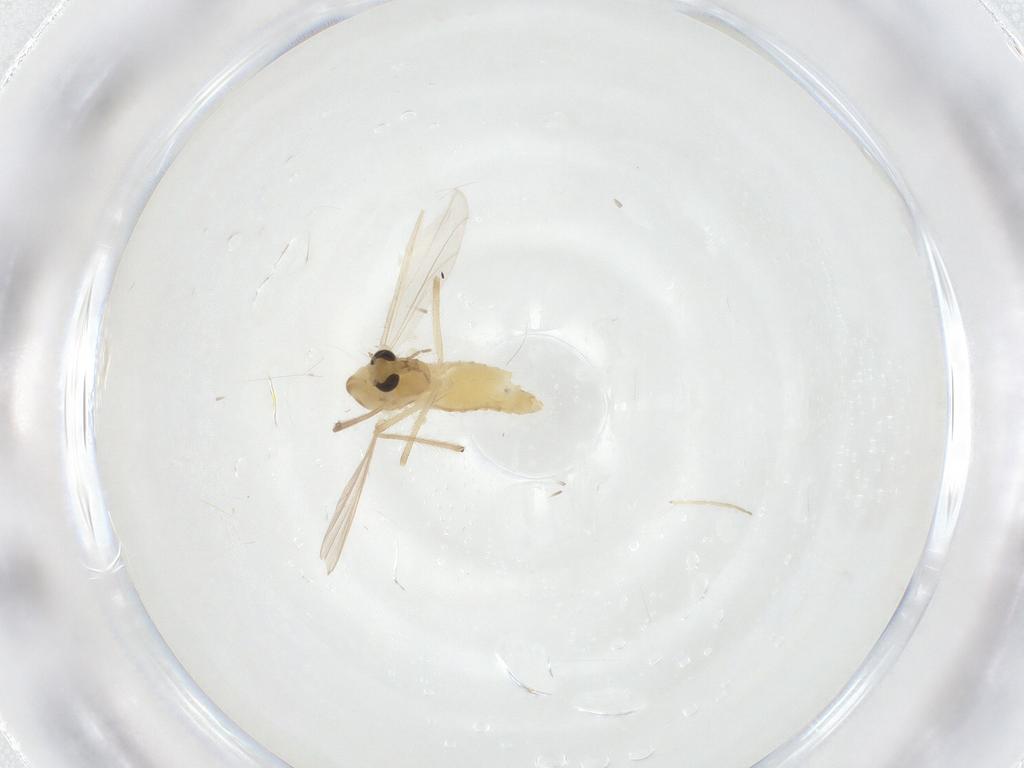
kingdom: Animalia
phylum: Arthropoda
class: Insecta
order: Diptera
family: Chironomidae
